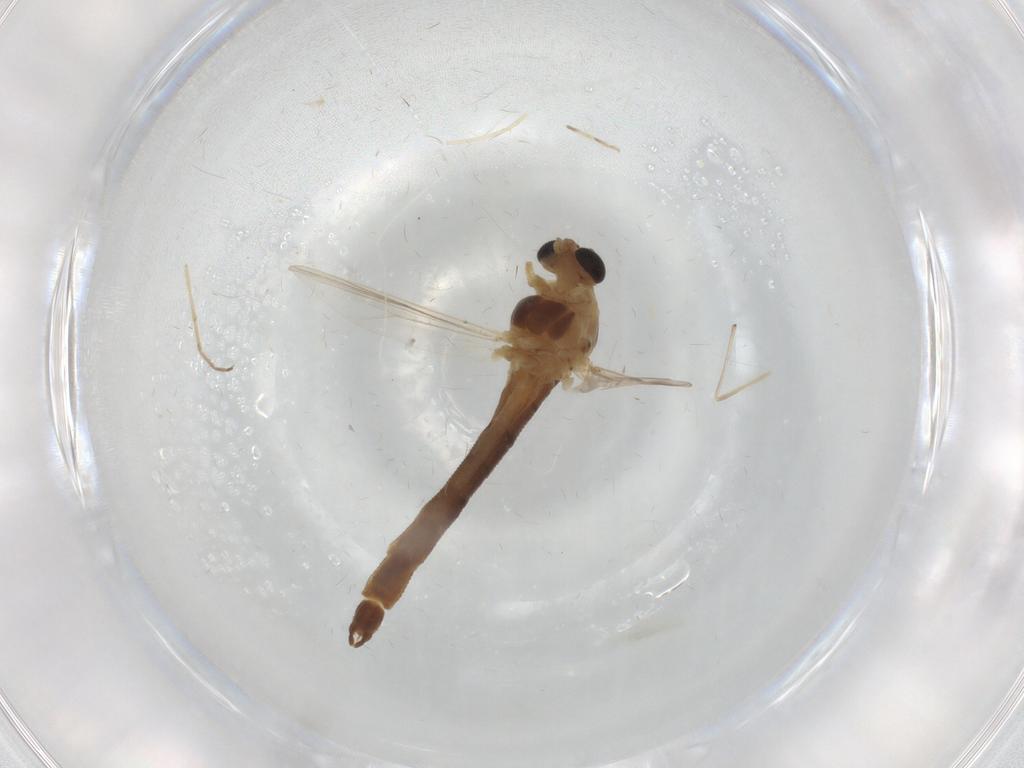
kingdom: Animalia
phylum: Arthropoda
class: Insecta
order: Diptera
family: Chironomidae
